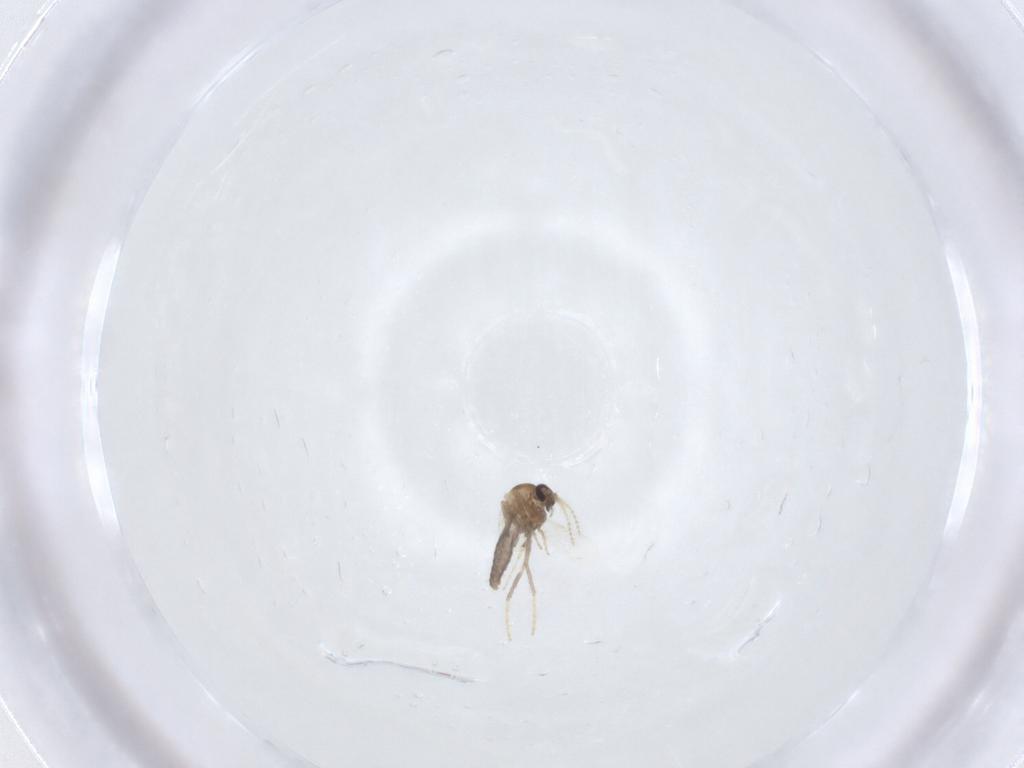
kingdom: Animalia
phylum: Arthropoda
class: Insecta
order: Diptera
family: Ceratopogonidae
